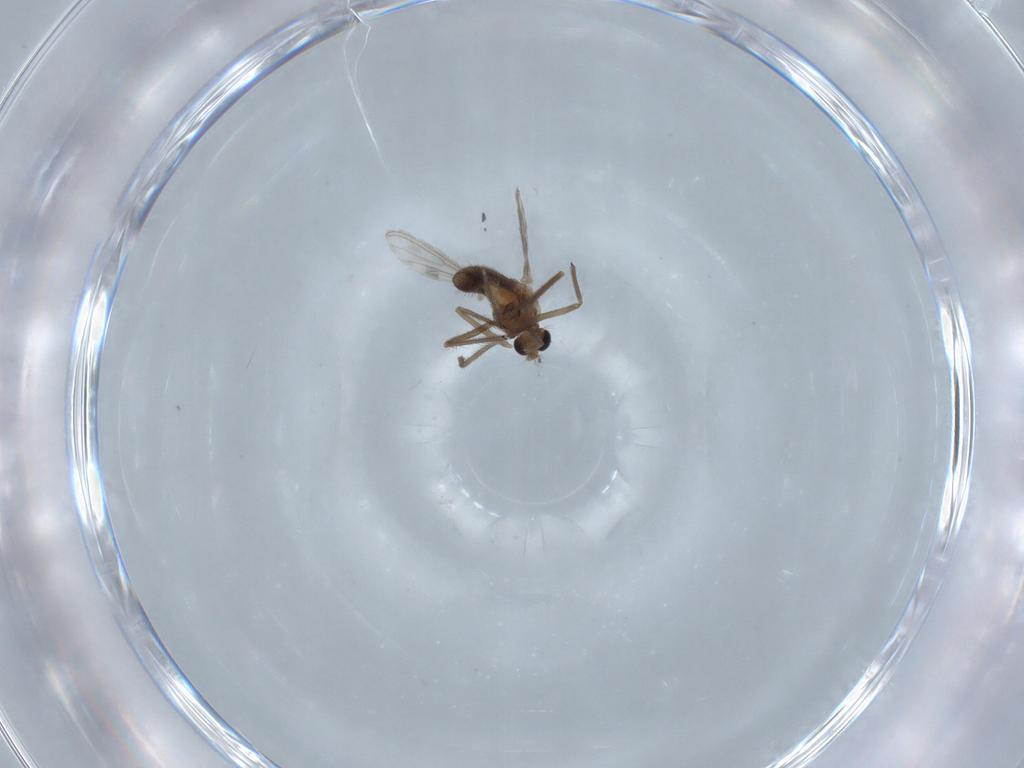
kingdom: Animalia
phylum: Arthropoda
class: Insecta
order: Diptera
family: Chironomidae
